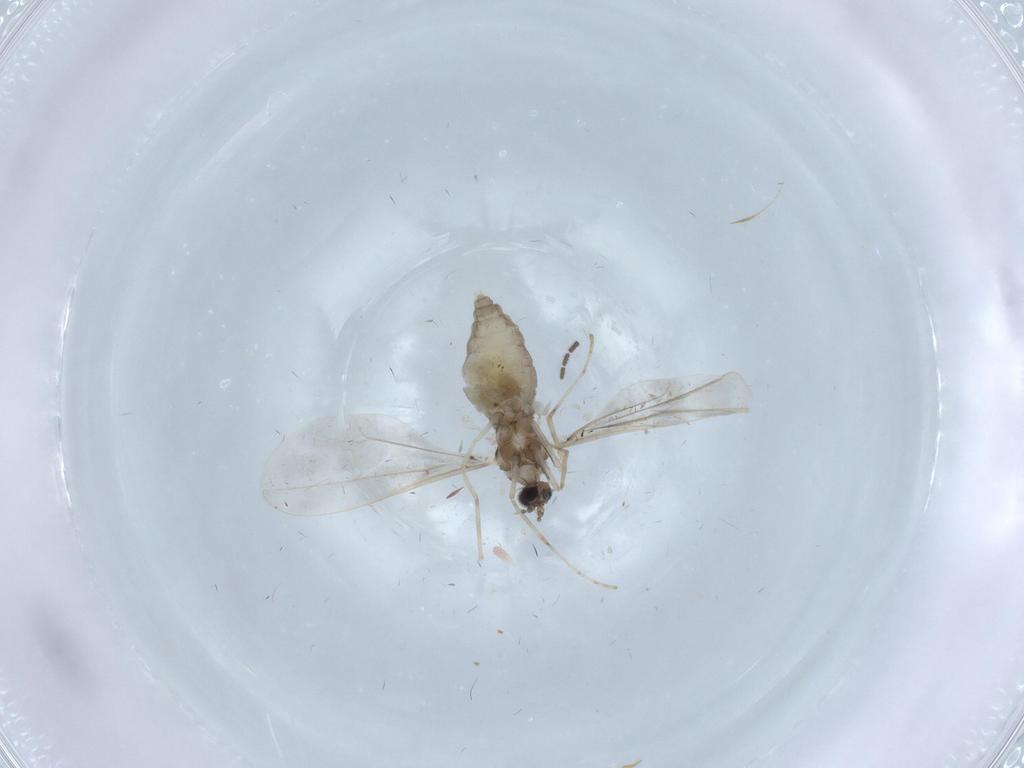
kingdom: Animalia
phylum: Arthropoda
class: Insecta
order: Diptera
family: Cecidomyiidae
